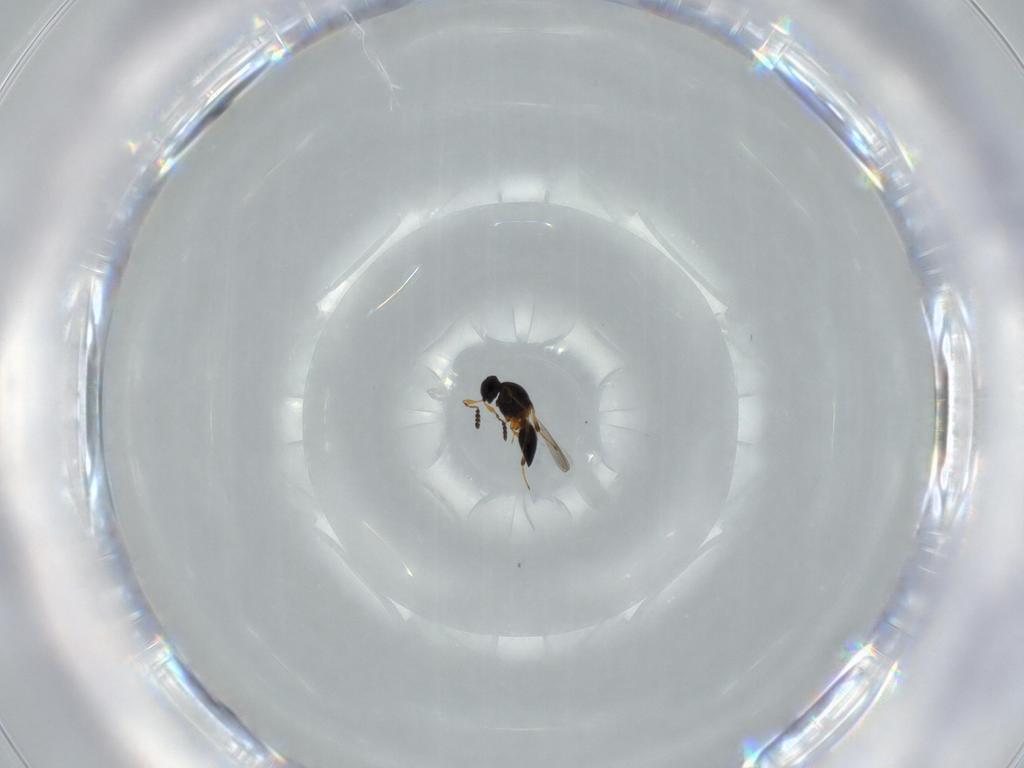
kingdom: Animalia
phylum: Arthropoda
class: Insecta
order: Hymenoptera
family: Platygastridae
